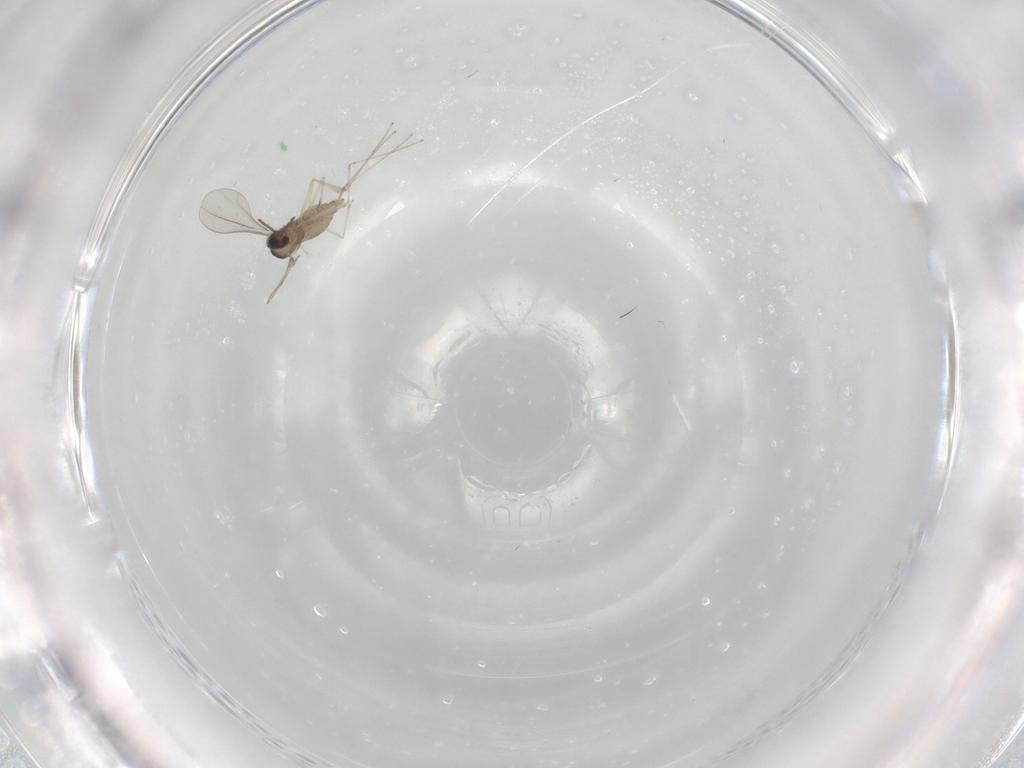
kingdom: Animalia
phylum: Arthropoda
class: Insecta
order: Diptera
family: Cecidomyiidae
